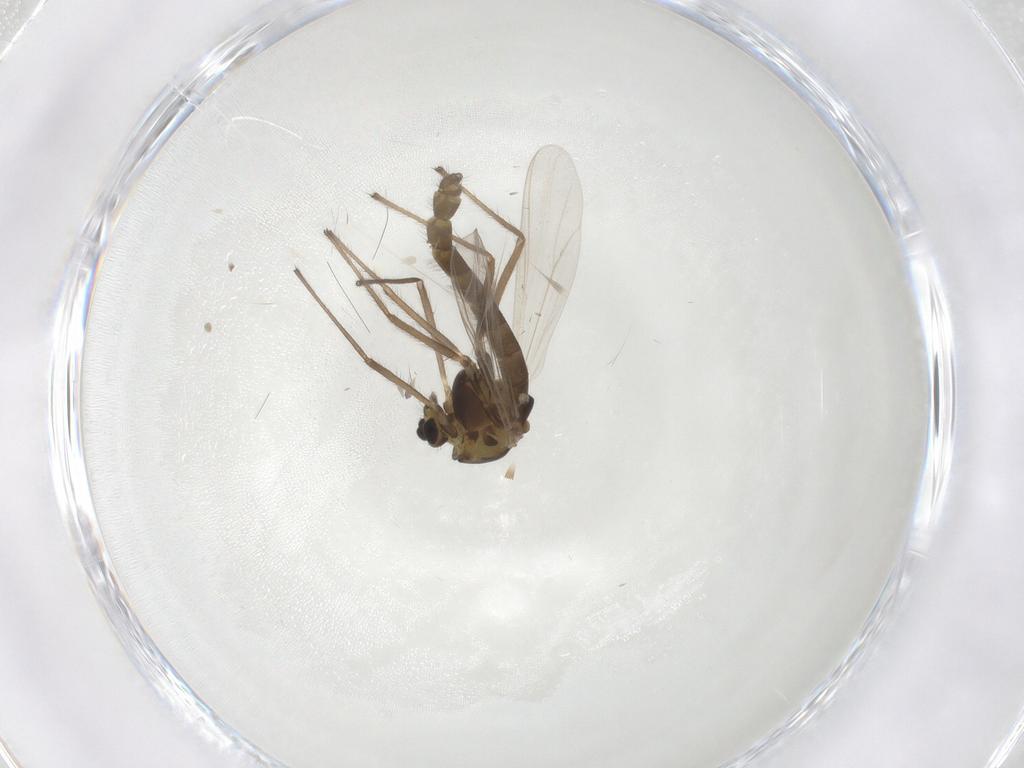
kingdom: Animalia
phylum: Arthropoda
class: Insecta
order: Diptera
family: Chironomidae
